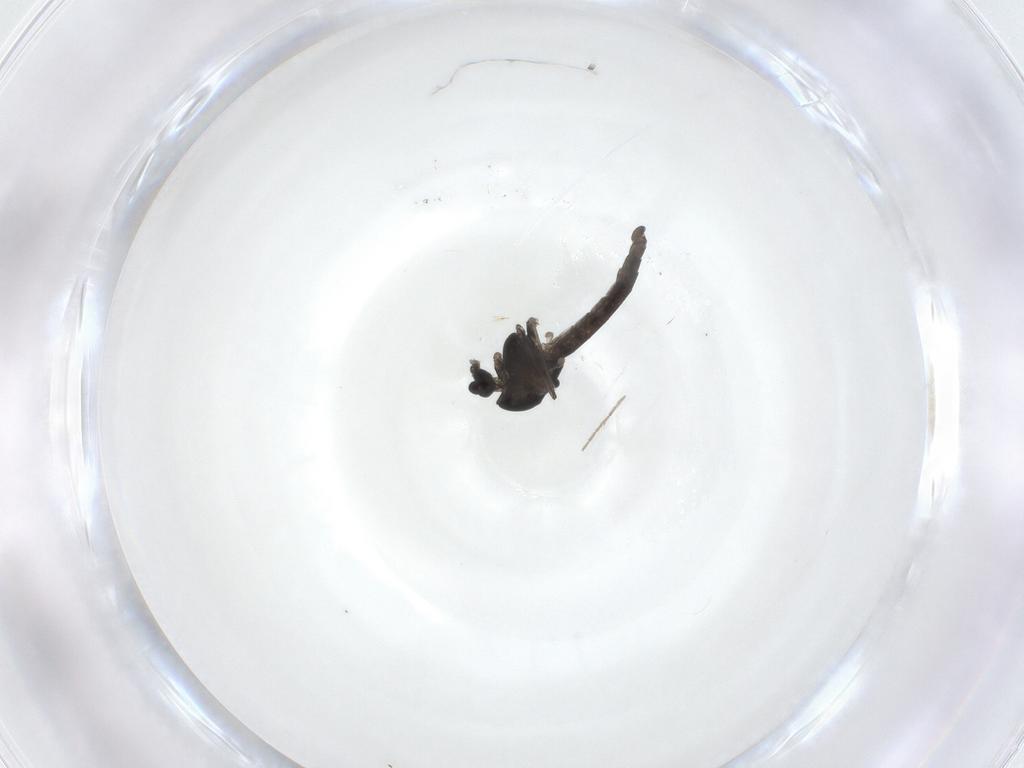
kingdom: Animalia
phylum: Arthropoda
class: Insecta
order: Diptera
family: Chironomidae
